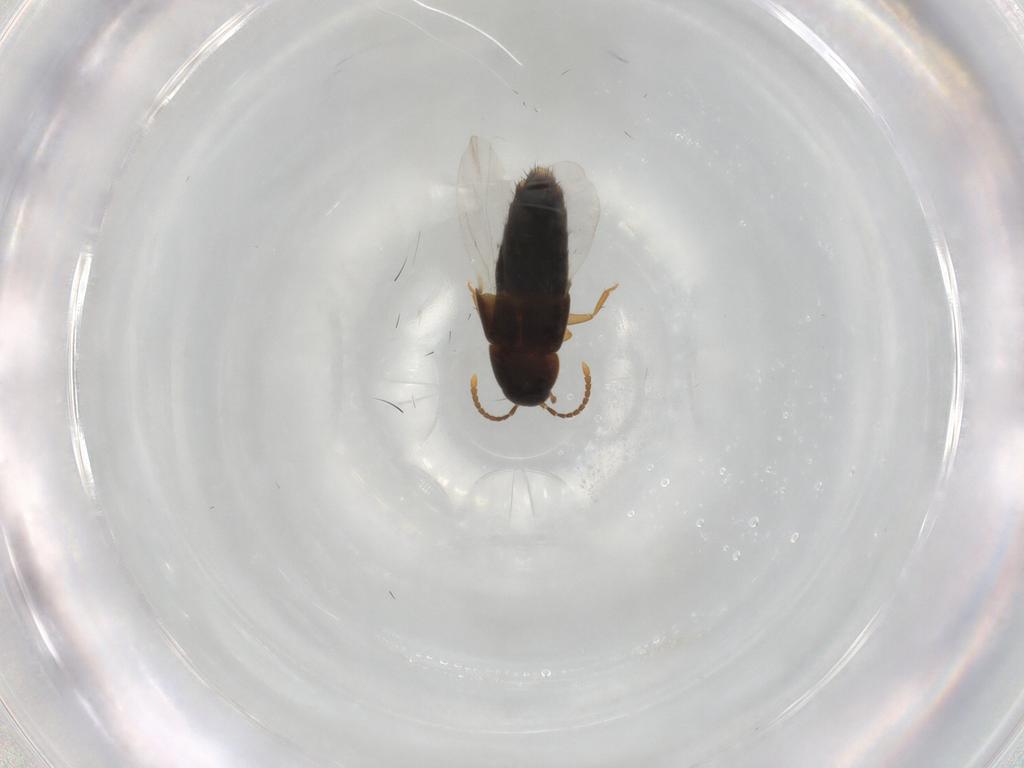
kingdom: Animalia
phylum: Arthropoda
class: Insecta
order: Coleoptera
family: Staphylinidae
